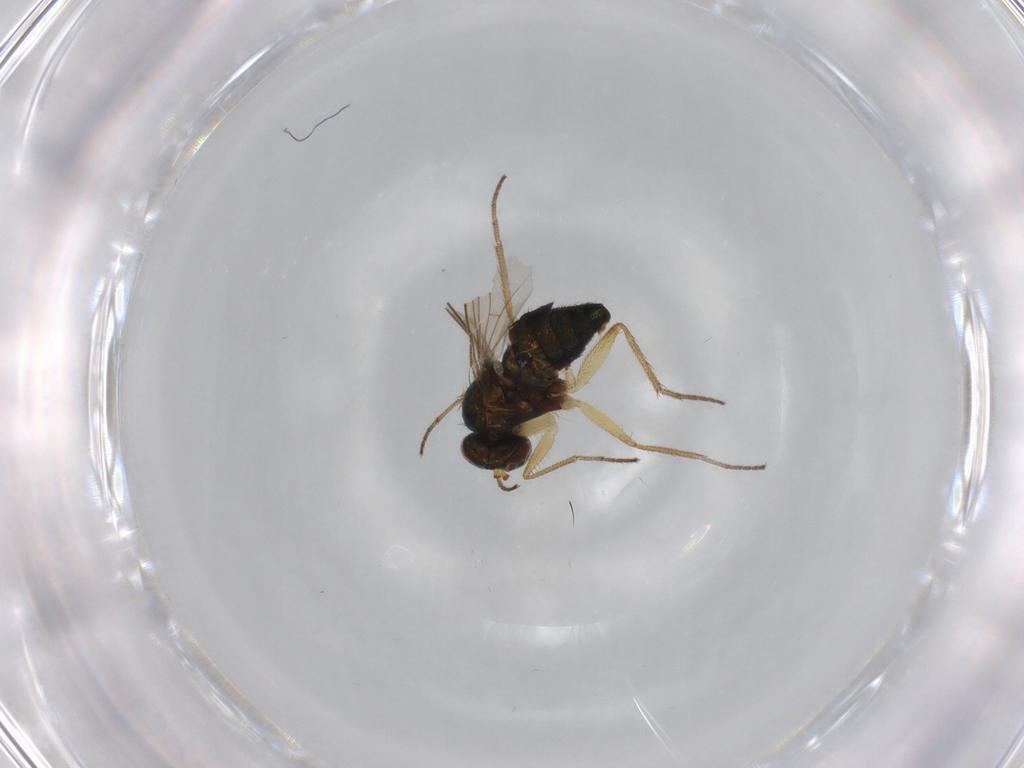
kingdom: Animalia
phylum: Arthropoda
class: Insecta
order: Diptera
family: Dolichopodidae
